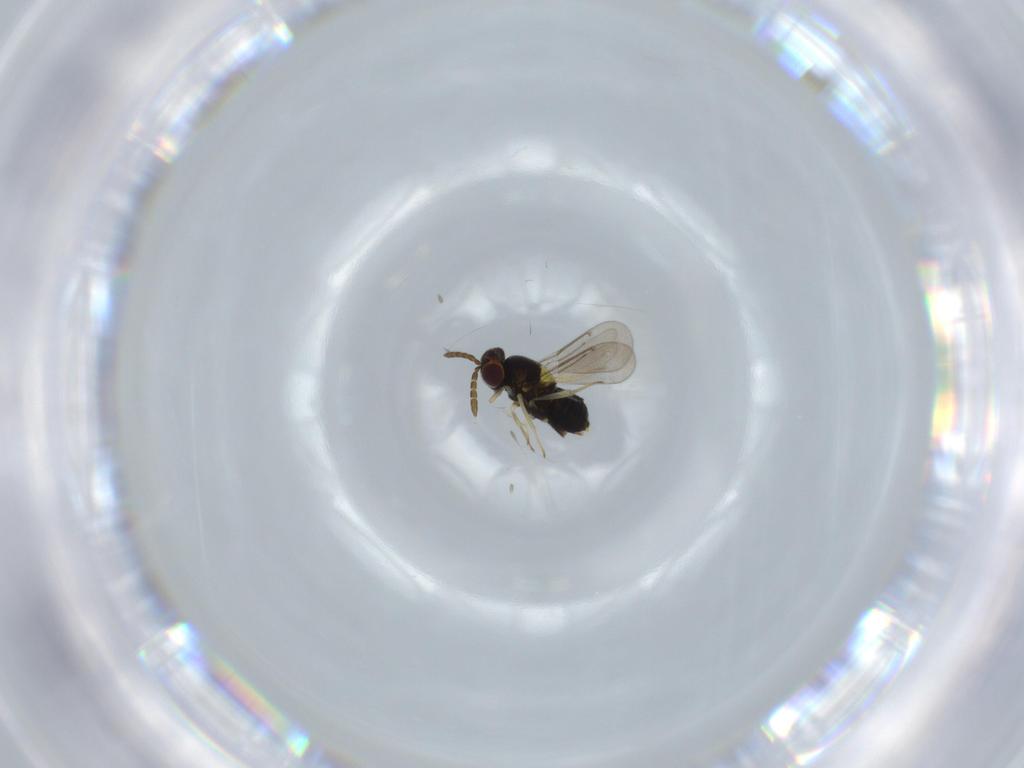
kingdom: Animalia
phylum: Arthropoda
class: Insecta
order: Hymenoptera
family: Aphelinidae
